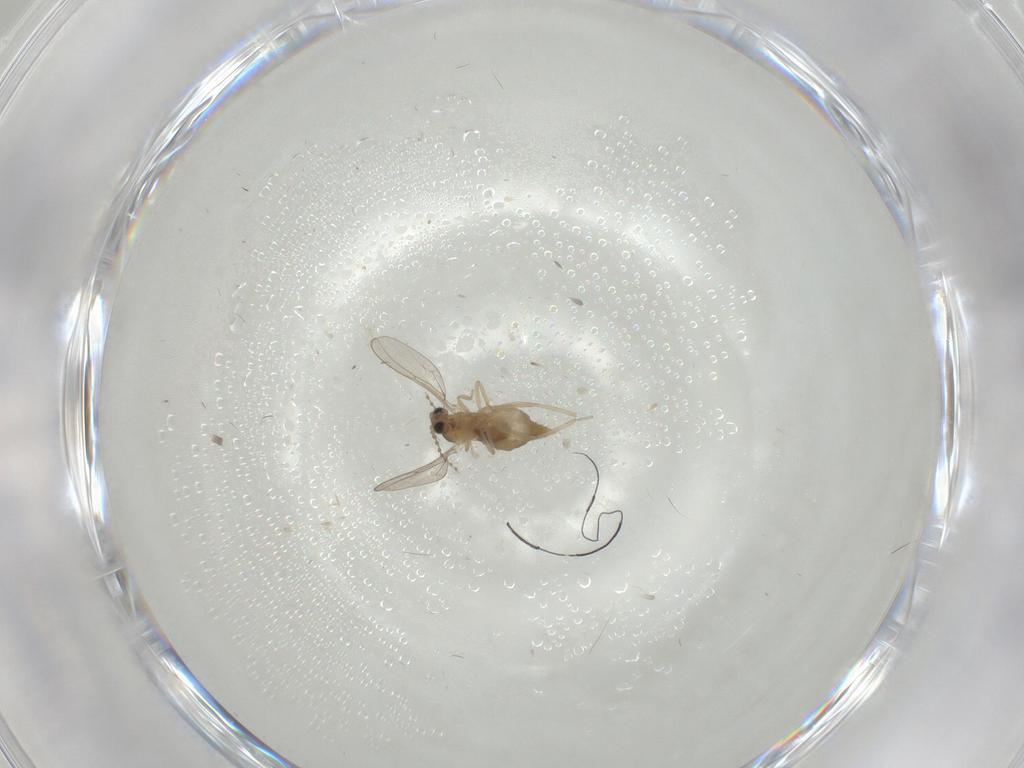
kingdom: Animalia
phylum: Arthropoda
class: Insecta
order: Diptera
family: Cecidomyiidae
